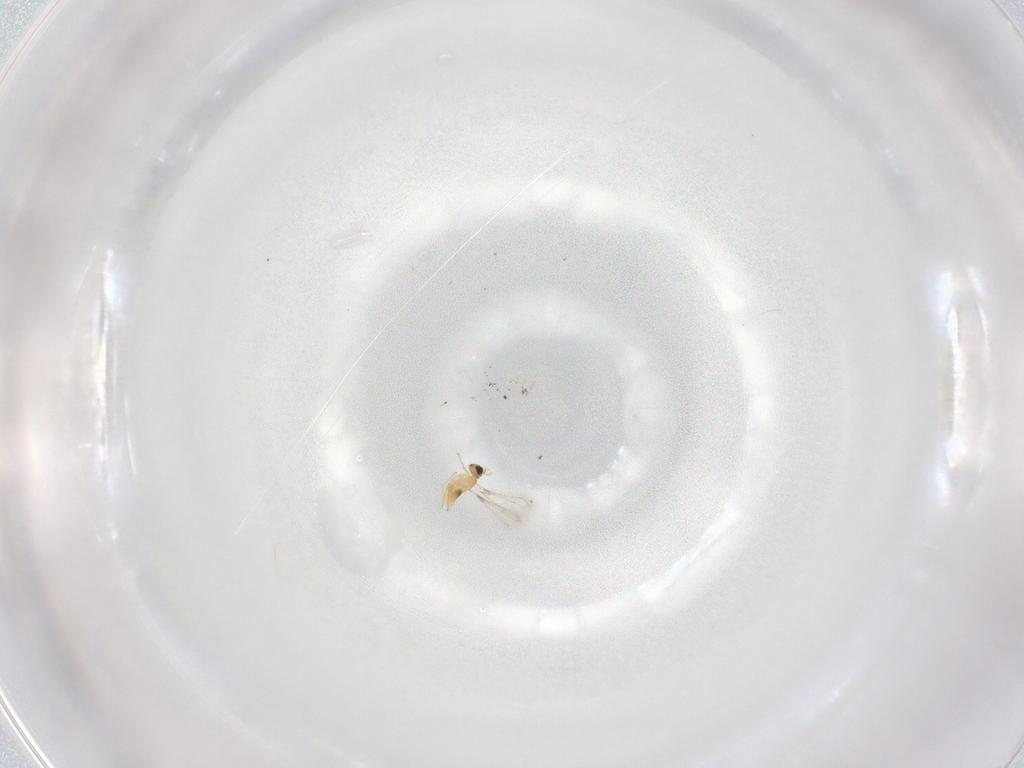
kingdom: Animalia
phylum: Arthropoda
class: Insecta
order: Hymenoptera
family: Mymaridae
